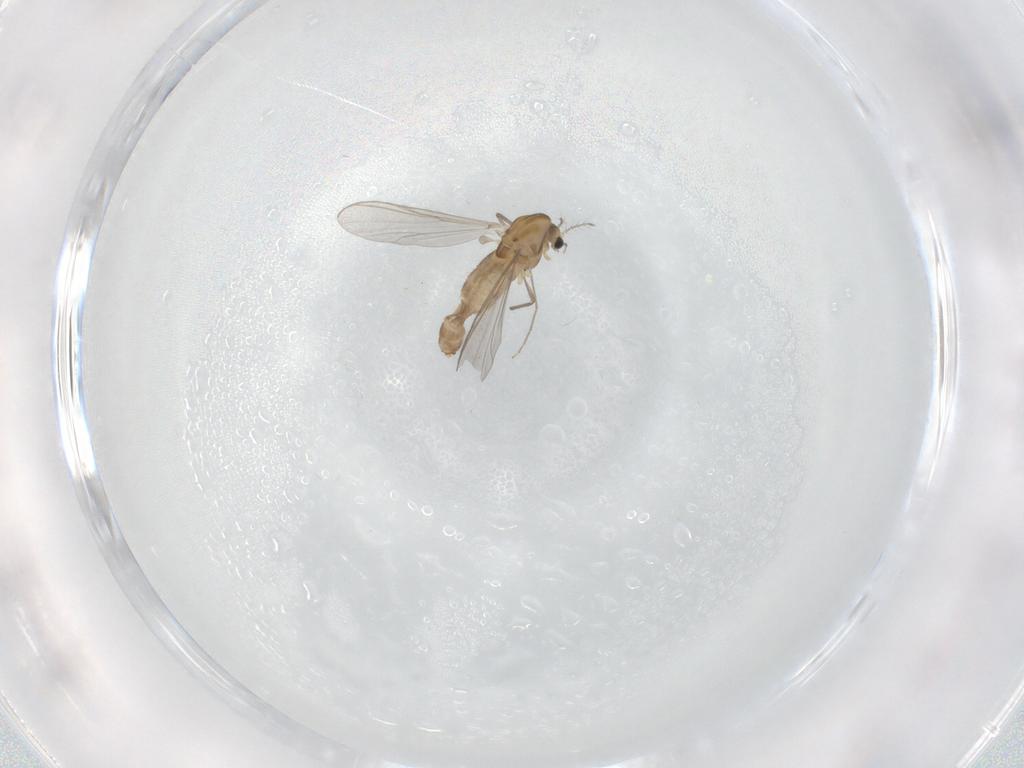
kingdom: Animalia
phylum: Arthropoda
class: Insecta
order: Diptera
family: Chironomidae
